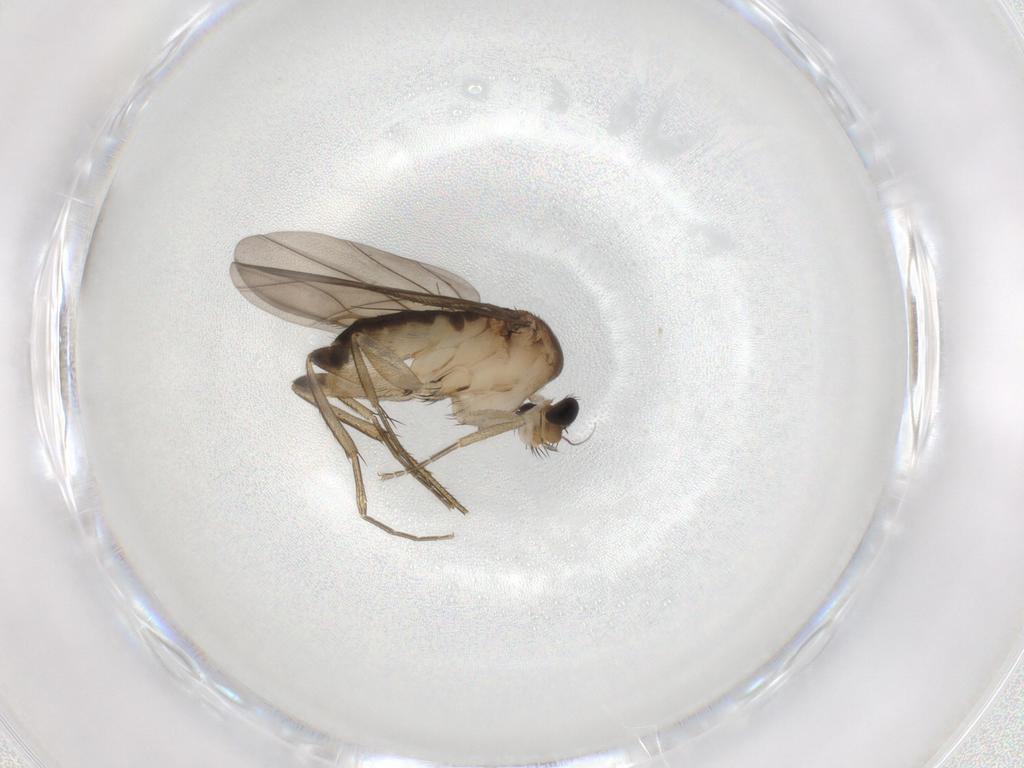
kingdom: Animalia
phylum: Arthropoda
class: Insecta
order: Diptera
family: Phoridae
